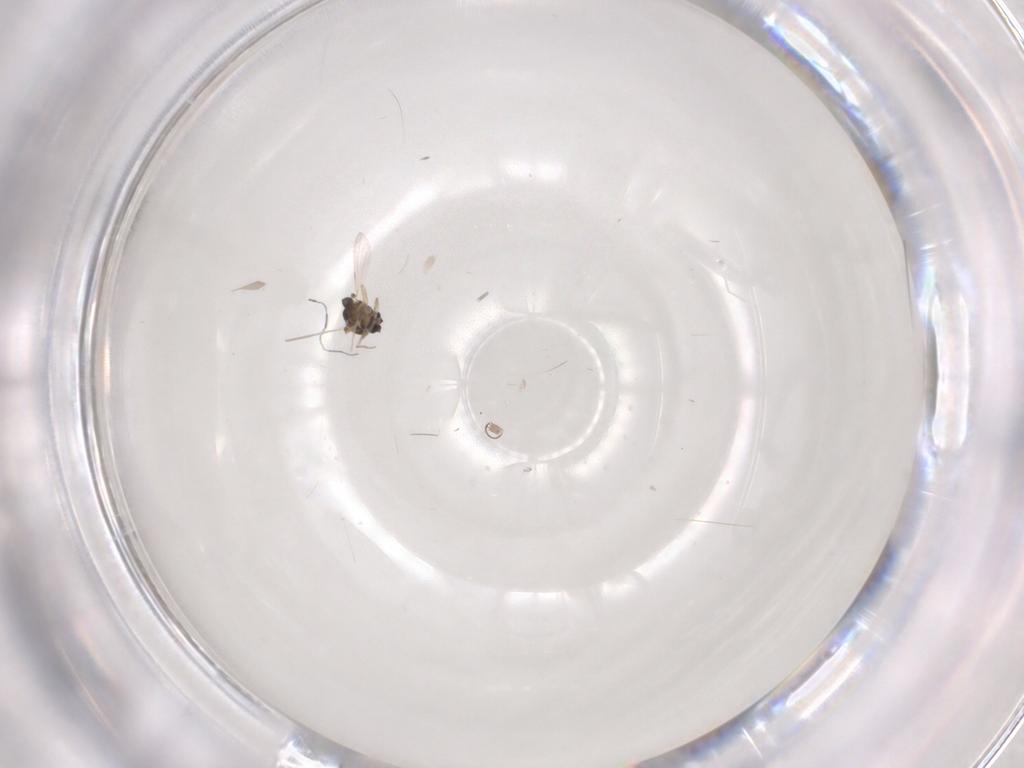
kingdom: Animalia
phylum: Arthropoda
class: Insecta
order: Diptera
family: Ceratopogonidae
